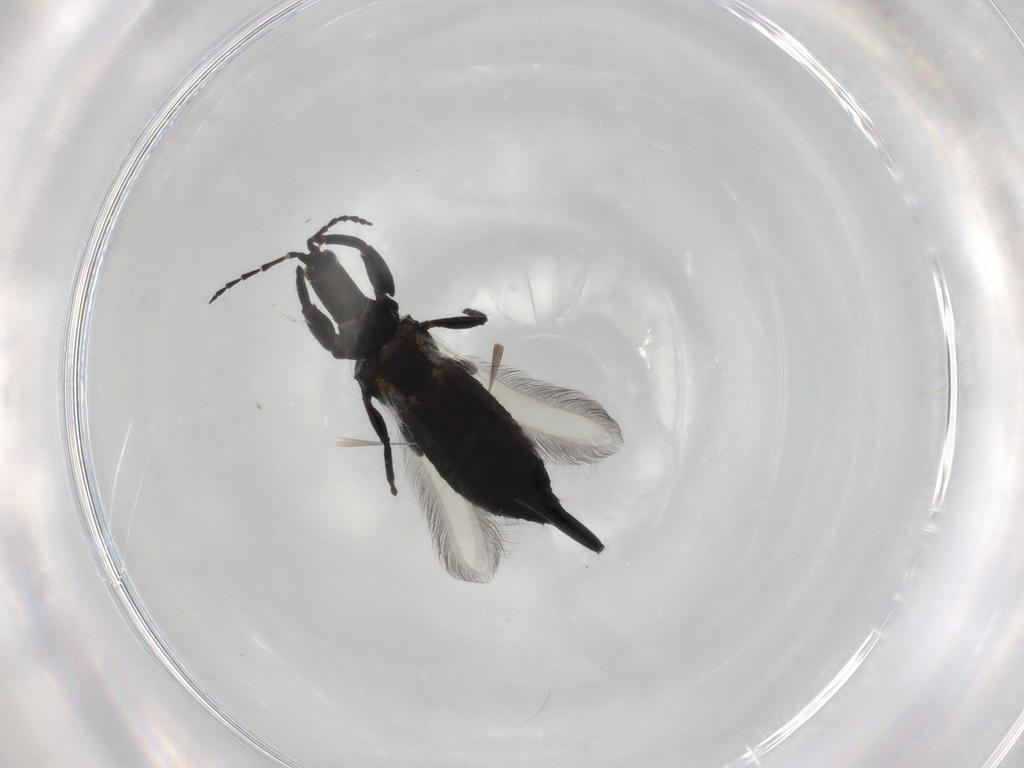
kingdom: Animalia
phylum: Arthropoda
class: Insecta
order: Thysanoptera
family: Phlaeothripidae
